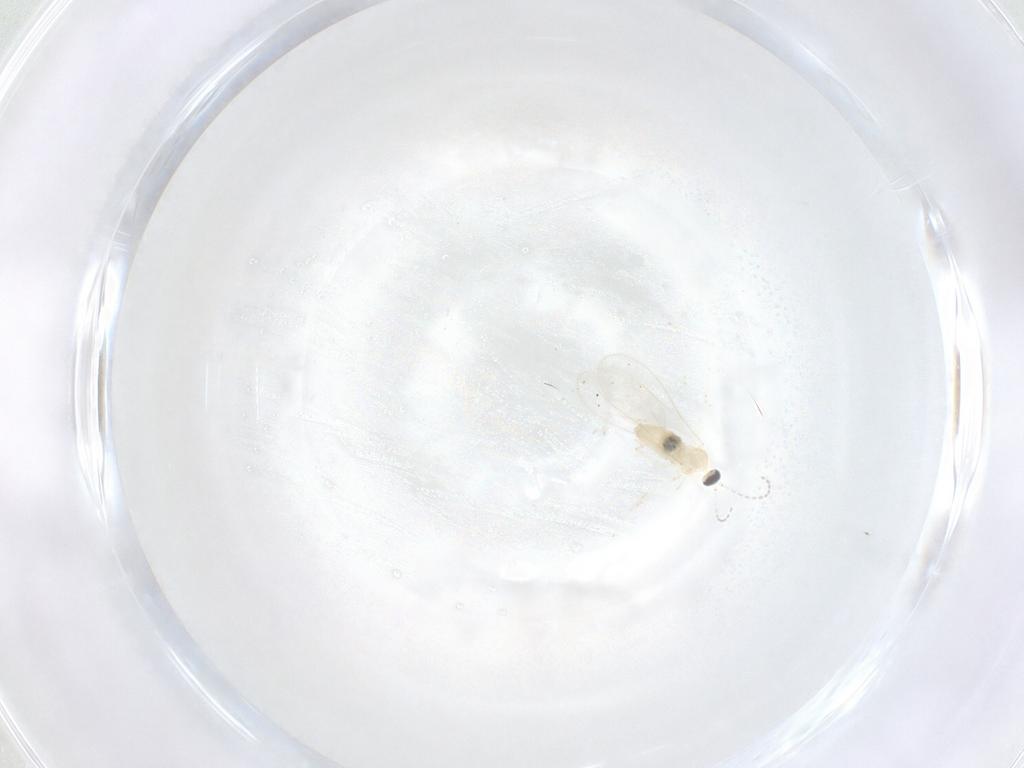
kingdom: Animalia
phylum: Arthropoda
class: Insecta
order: Diptera
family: Cecidomyiidae
